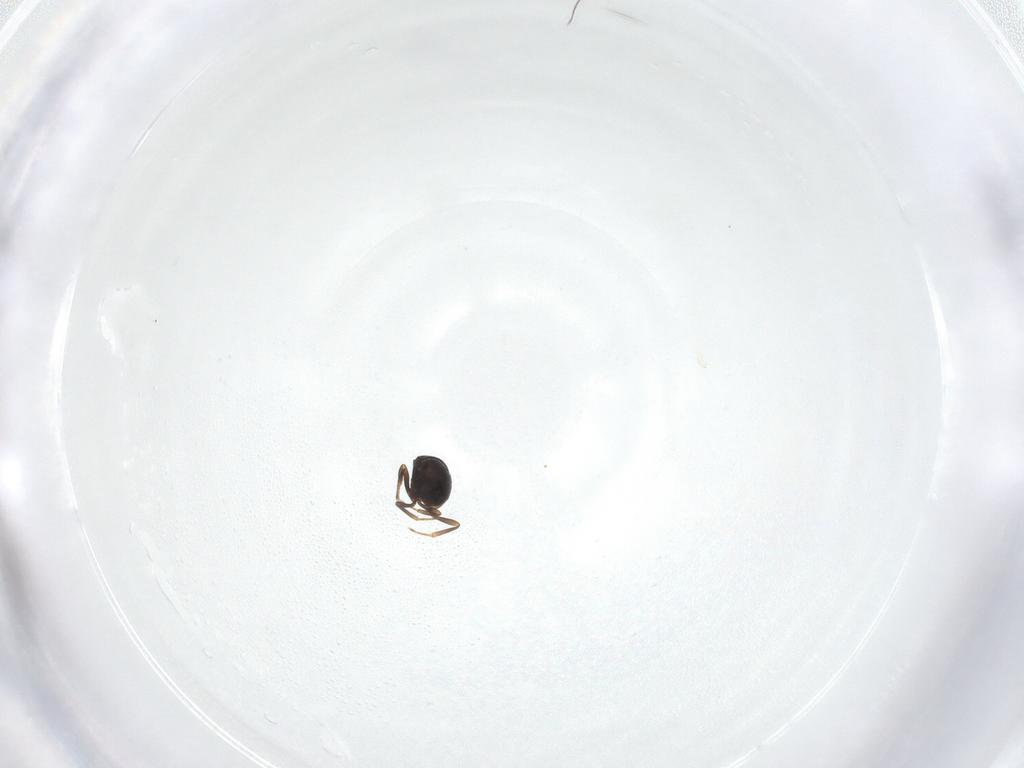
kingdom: Animalia
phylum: Arthropoda
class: Insecta
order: Hymenoptera
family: Scelionidae
